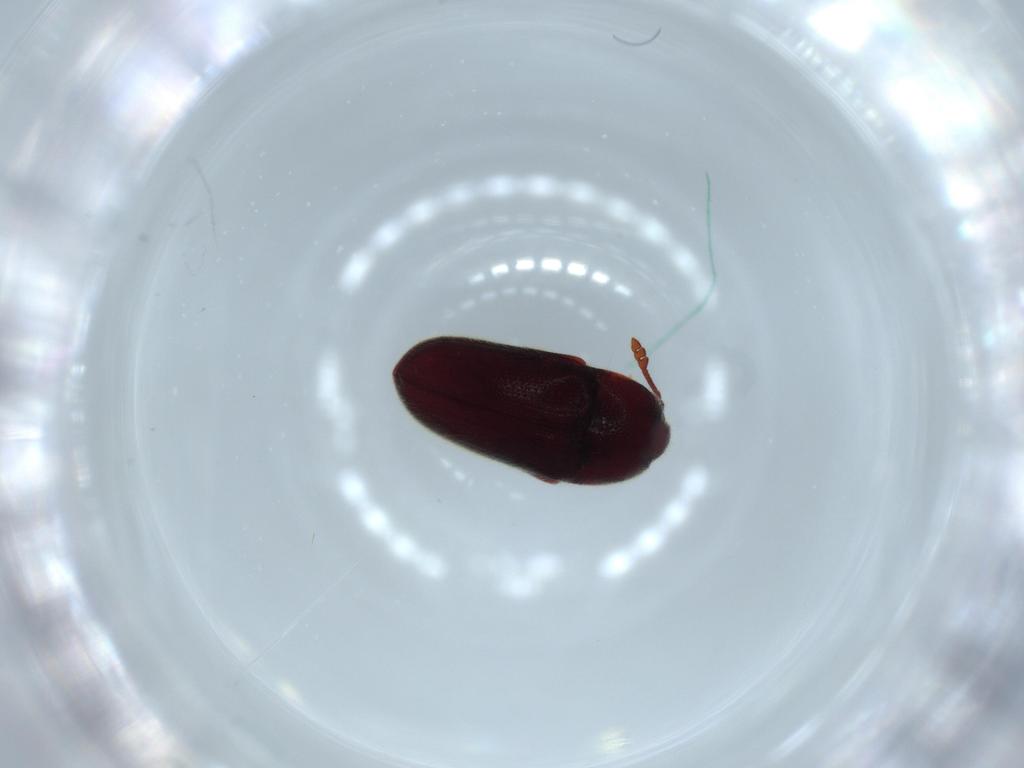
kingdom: Animalia
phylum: Arthropoda
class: Insecta
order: Coleoptera
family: Throscidae
